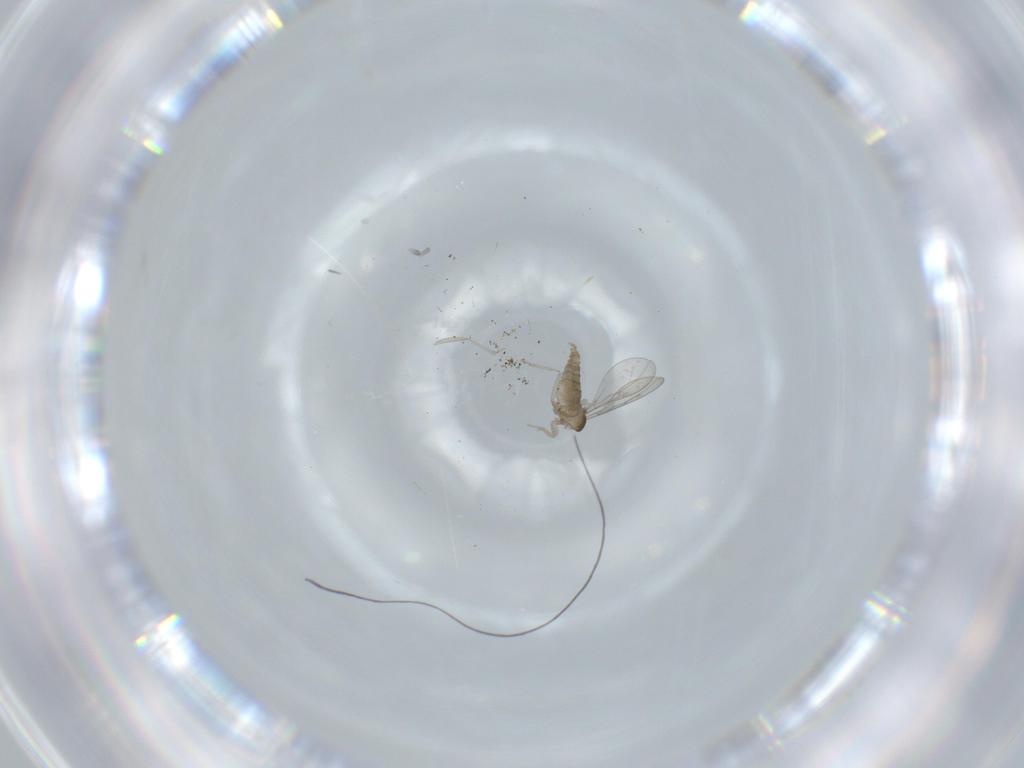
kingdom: Animalia
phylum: Arthropoda
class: Insecta
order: Diptera
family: Cecidomyiidae
